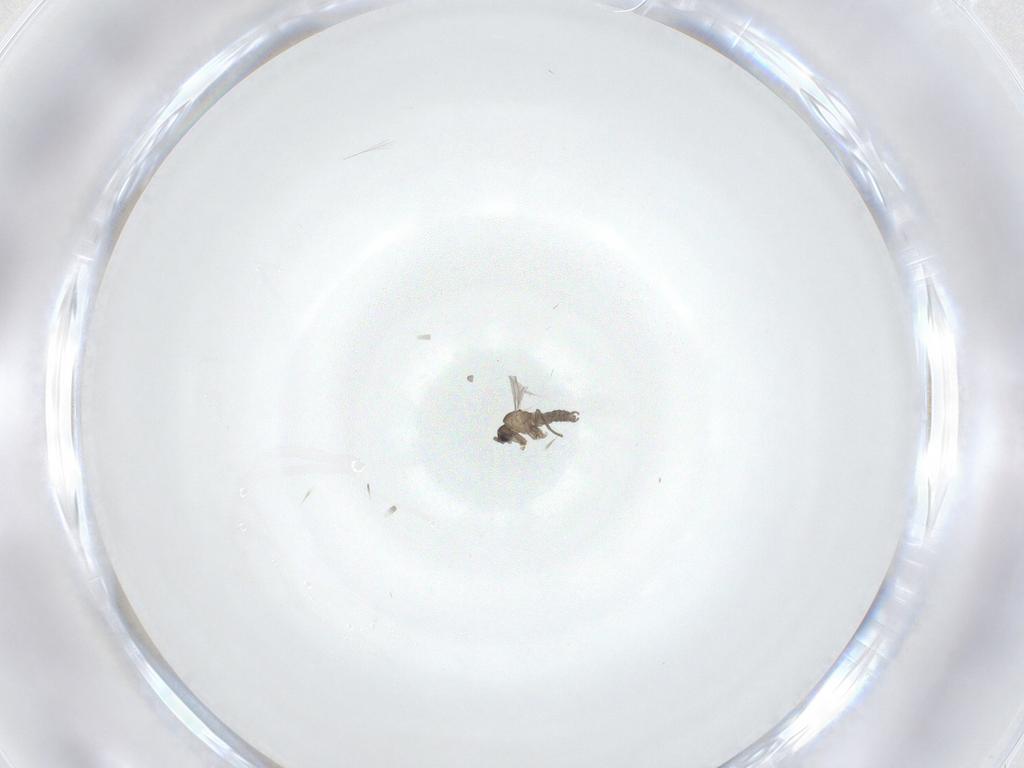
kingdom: Animalia
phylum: Arthropoda
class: Insecta
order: Diptera
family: Sciaridae
